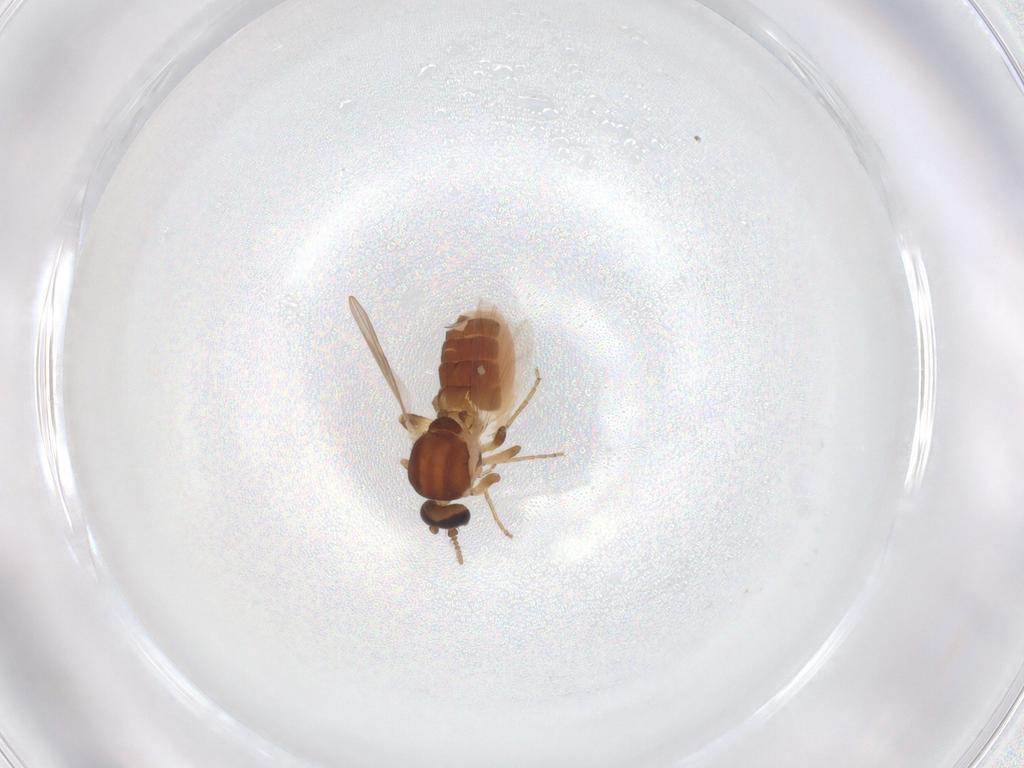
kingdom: Animalia
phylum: Arthropoda
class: Insecta
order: Diptera
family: Ceratopogonidae
